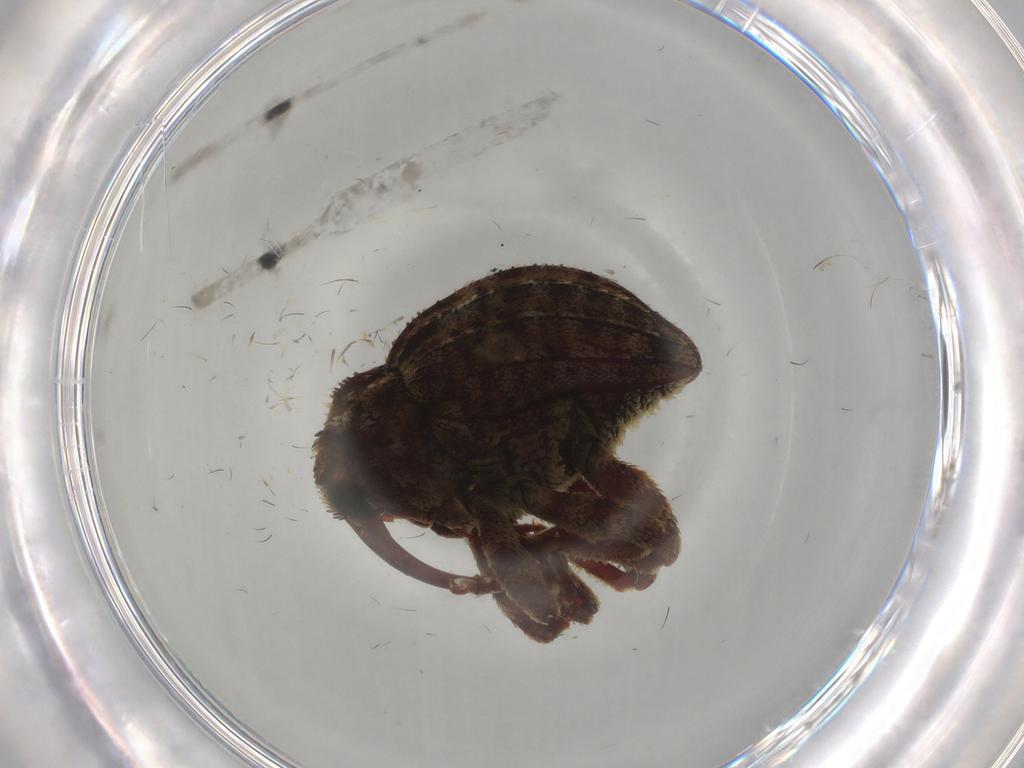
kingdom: Animalia
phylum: Arthropoda
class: Insecta
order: Coleoptera
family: Curculionidae
